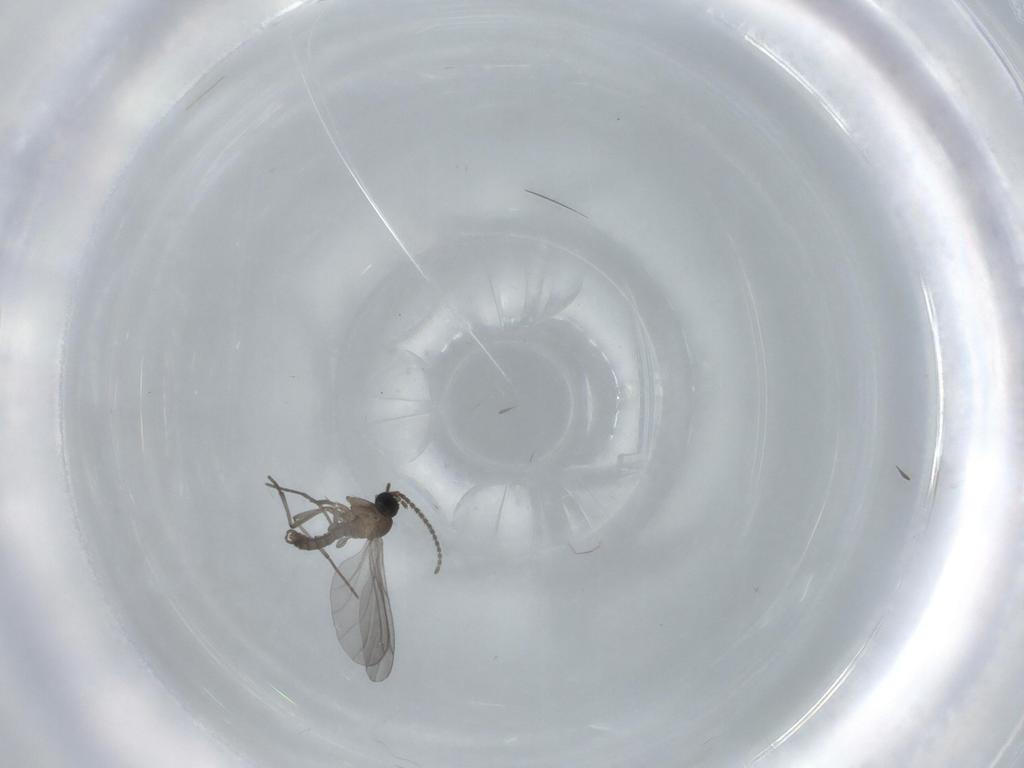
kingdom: Animalia
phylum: Arthropoda
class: Insecta
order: Diptera
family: Sciaridae
